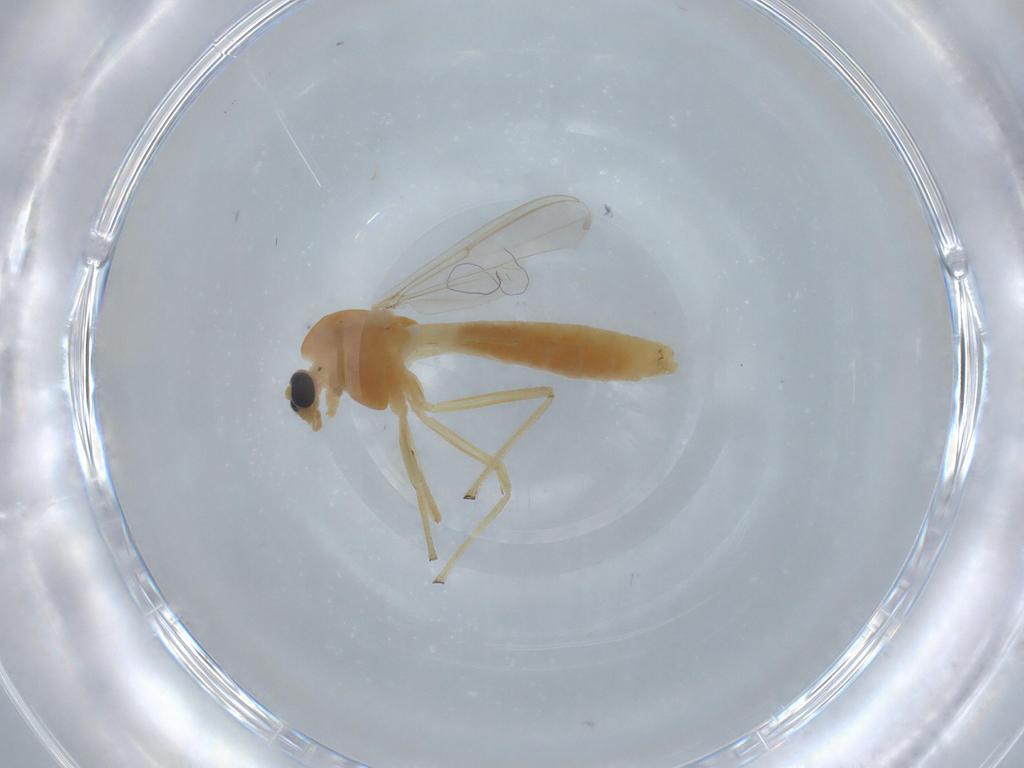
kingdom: Animalia
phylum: Arthropoda
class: Insecta
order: Diptera
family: Chironomidae
